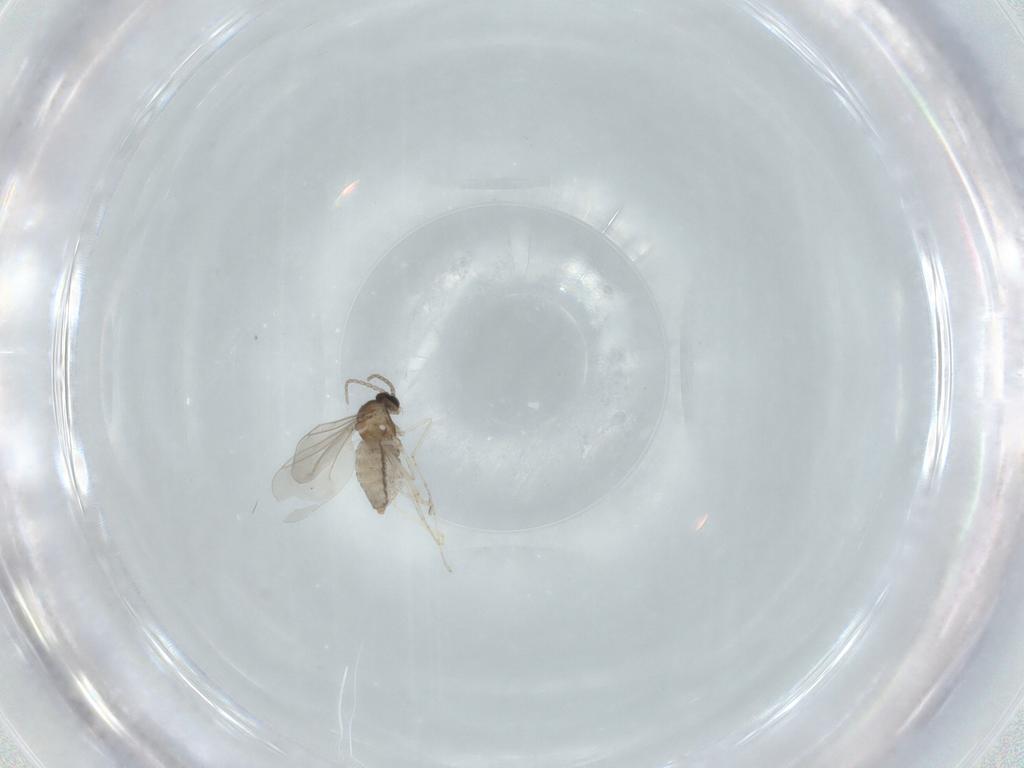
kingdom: Animalia
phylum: Arthropoda
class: Insecta
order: Diptera
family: Cecidomyiidae
